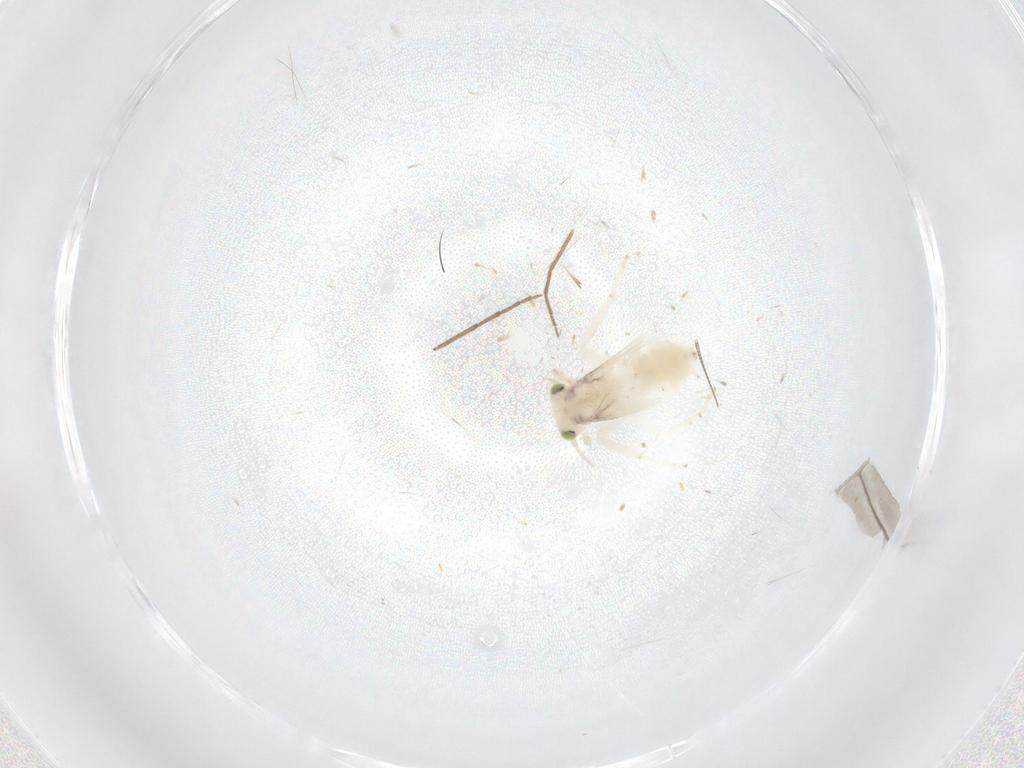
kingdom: Animalia
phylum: Arthropoda
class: Insecta
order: Psocodea
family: Lepidopsocidae
